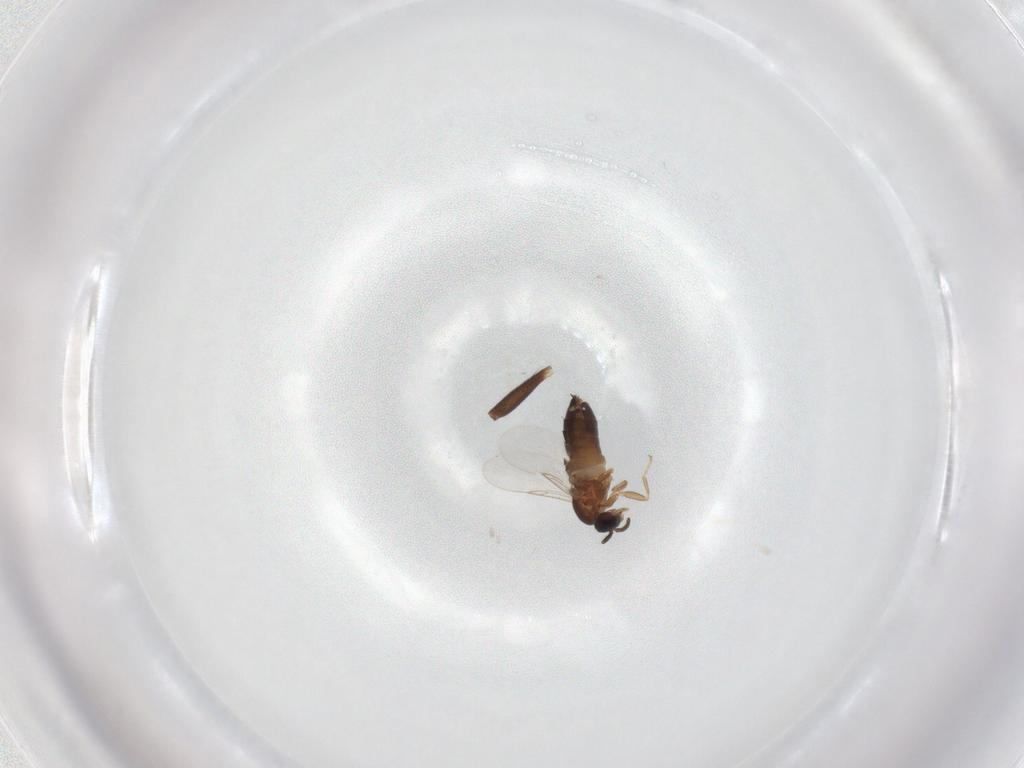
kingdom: Animalia
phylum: Arthropoda
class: Insecta
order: Diptera
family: Scatopsidae
